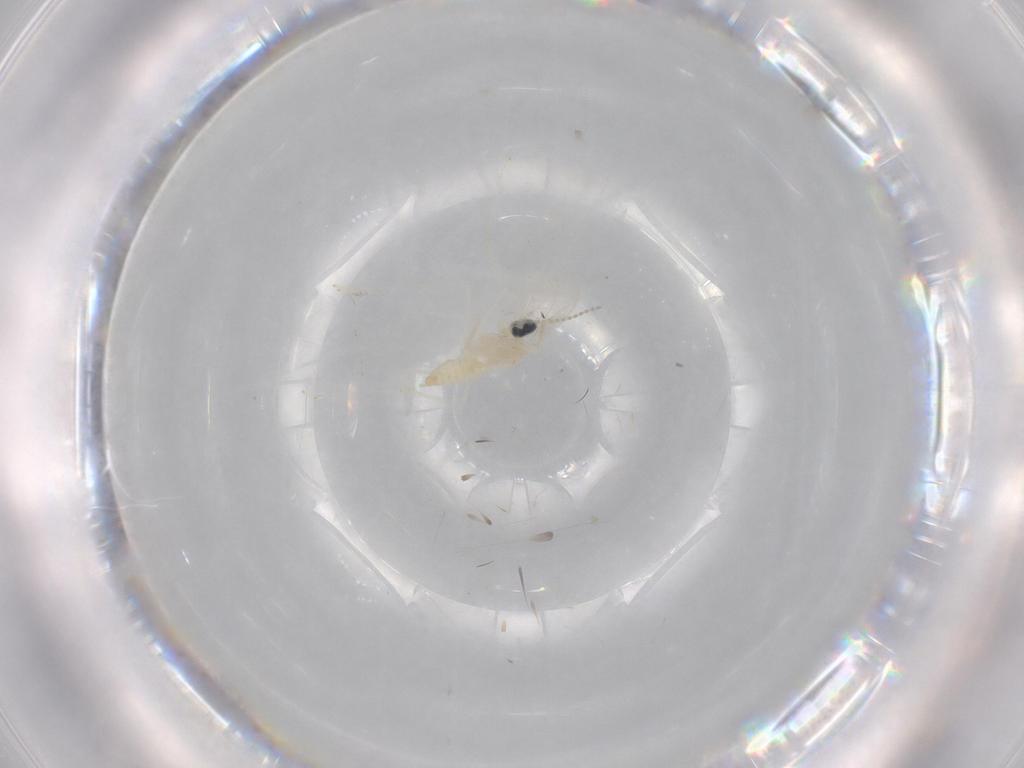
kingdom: Animalia
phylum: Arthropoda
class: Insecta
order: Diptera
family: Cecidomyiidae
